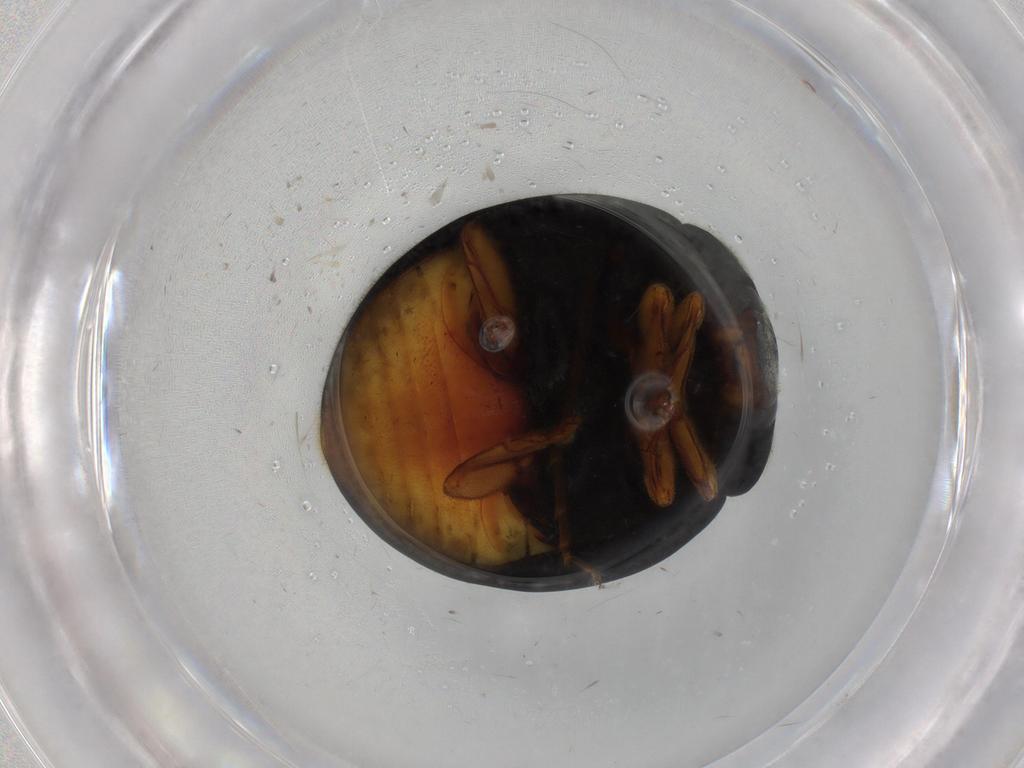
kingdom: Animalia
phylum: Arthropoda
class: Insecta
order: Coleoptera
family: Coccinellidae
